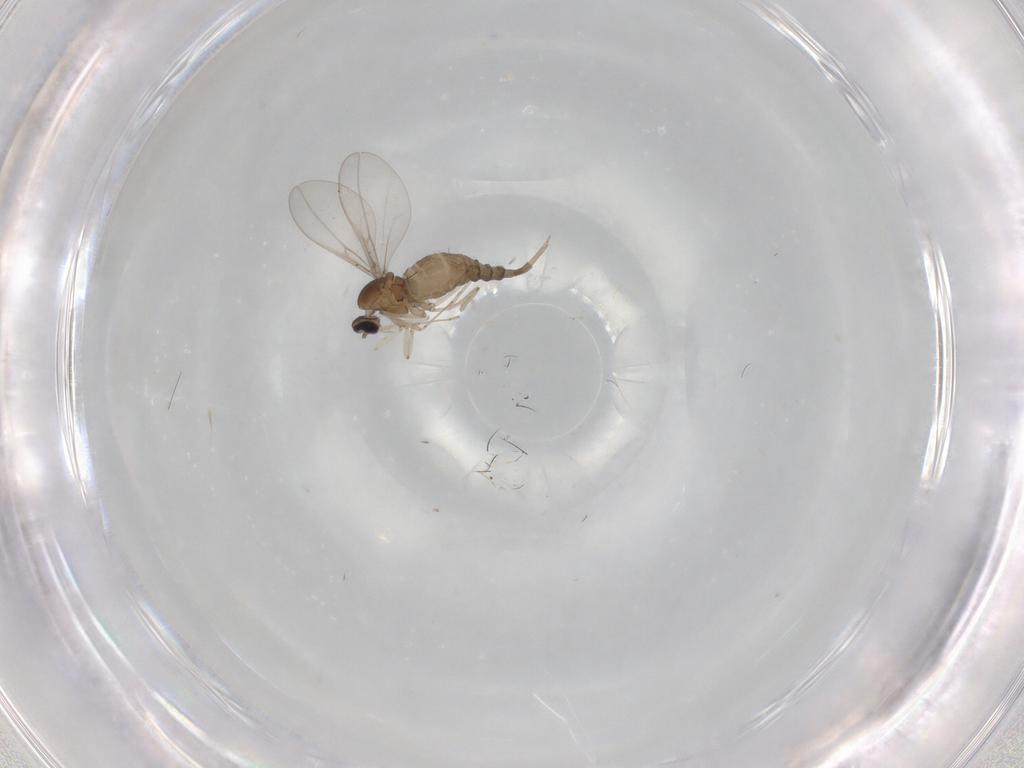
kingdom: Animalia
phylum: Arthropoda
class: Insecta
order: Diptera
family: Cecidomyiidae
